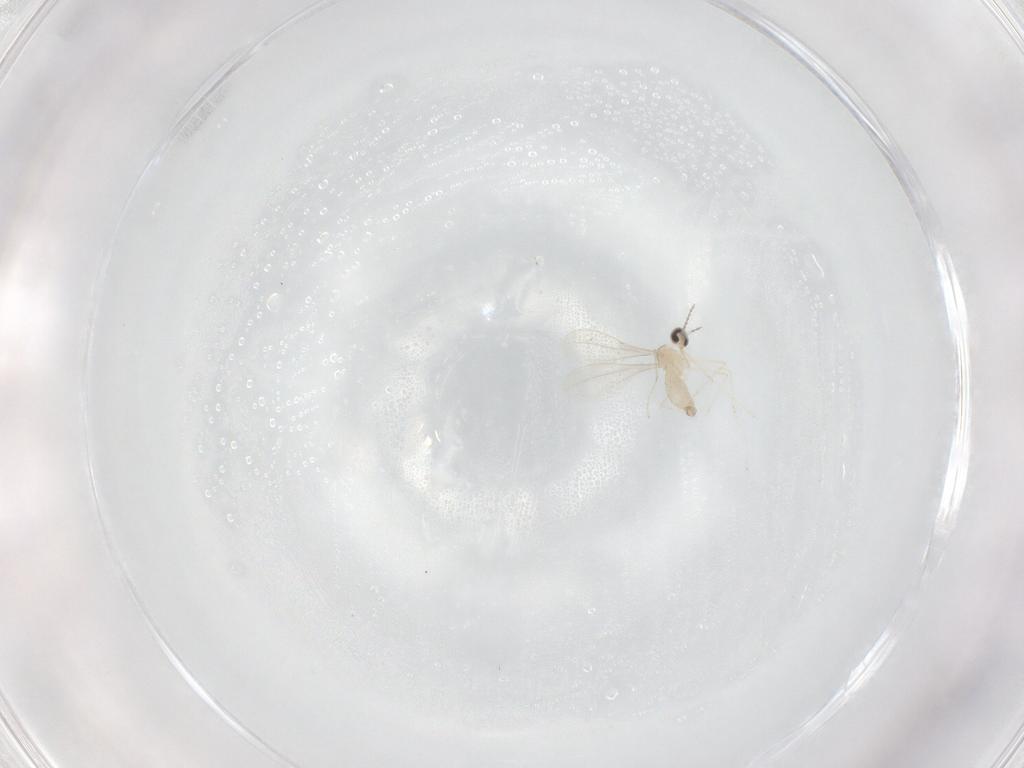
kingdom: Animalia
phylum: Arthropoda
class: Insecta
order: Diptera
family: Cecidomyiidae
